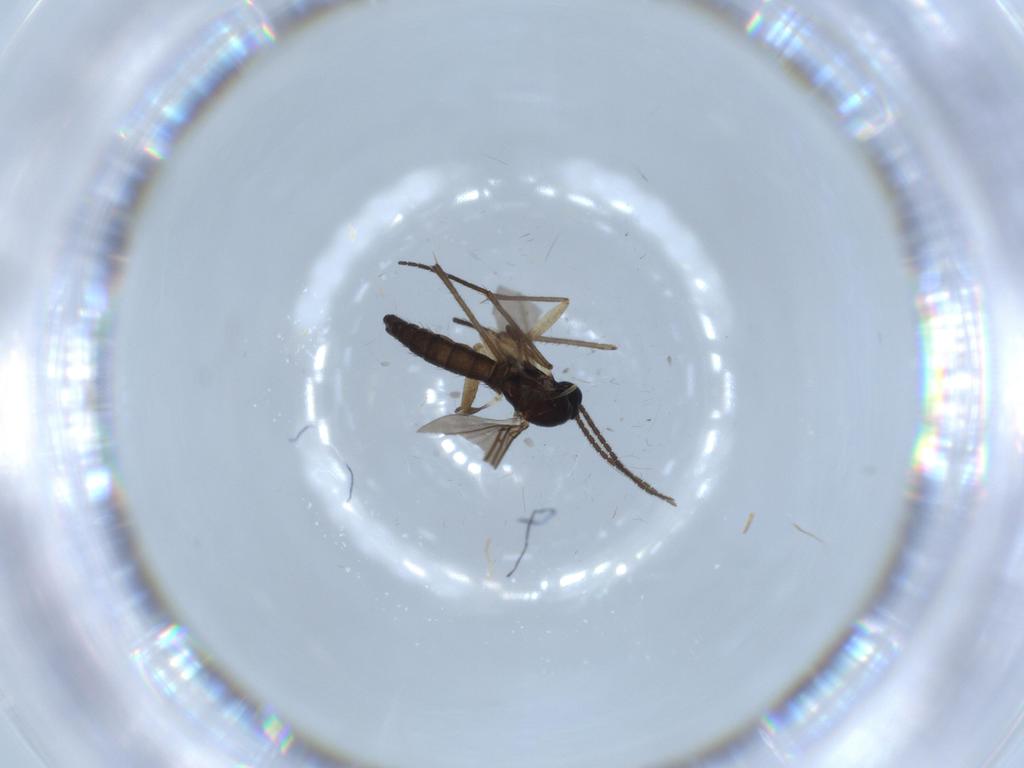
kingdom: Animalia
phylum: Arthropoda
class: Insecta
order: Diptera
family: Sciaridae
